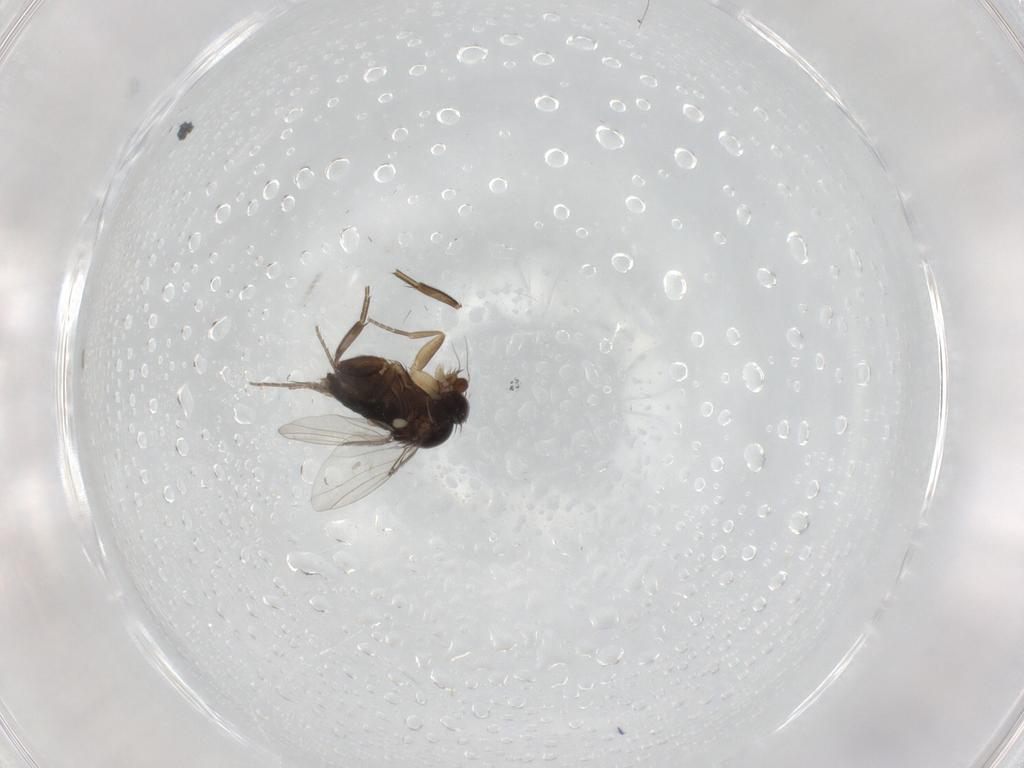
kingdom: Animalia
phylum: Arthropoda
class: Insecta
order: Diptera
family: Phoridae
